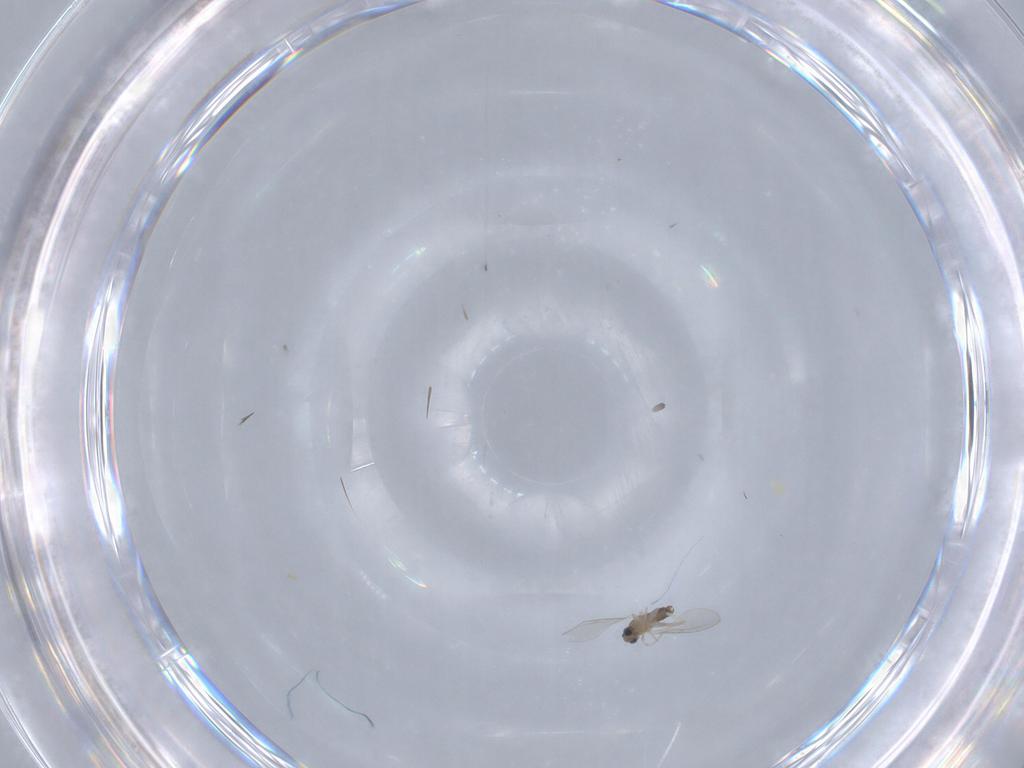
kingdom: Animalia
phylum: Arthropoda
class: Insecta
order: Diptera
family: Cecidomyiidae
